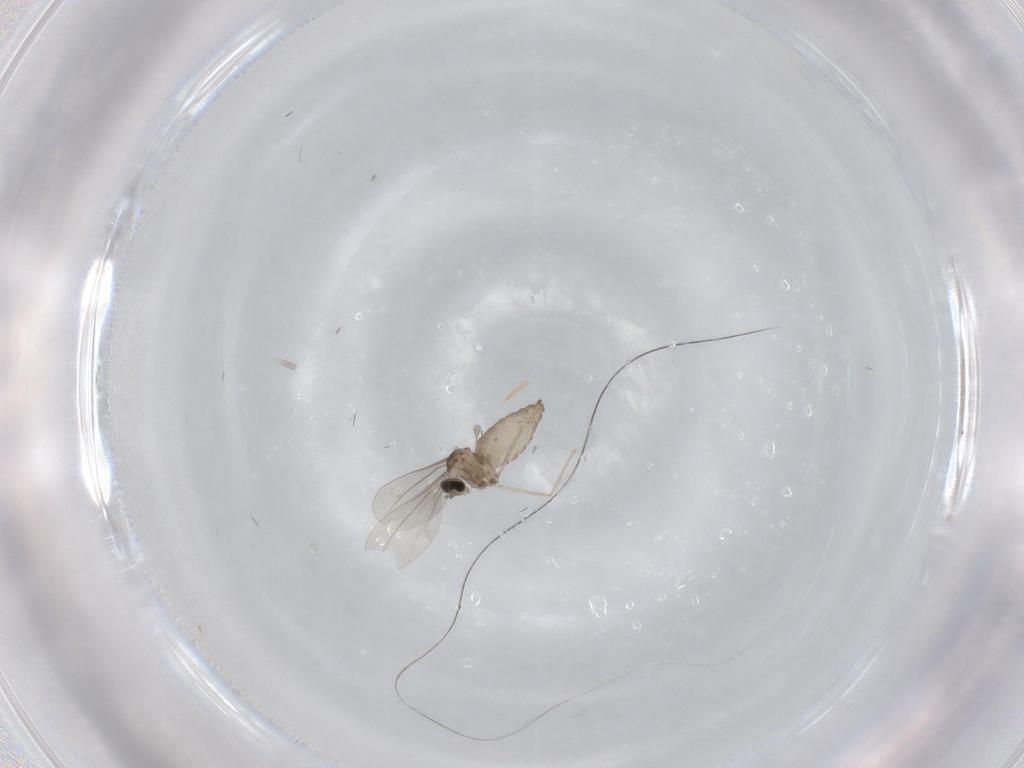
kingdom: Animalia
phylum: Arthropoda
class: Insecta
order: Diptera
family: Cecidomyiidae
